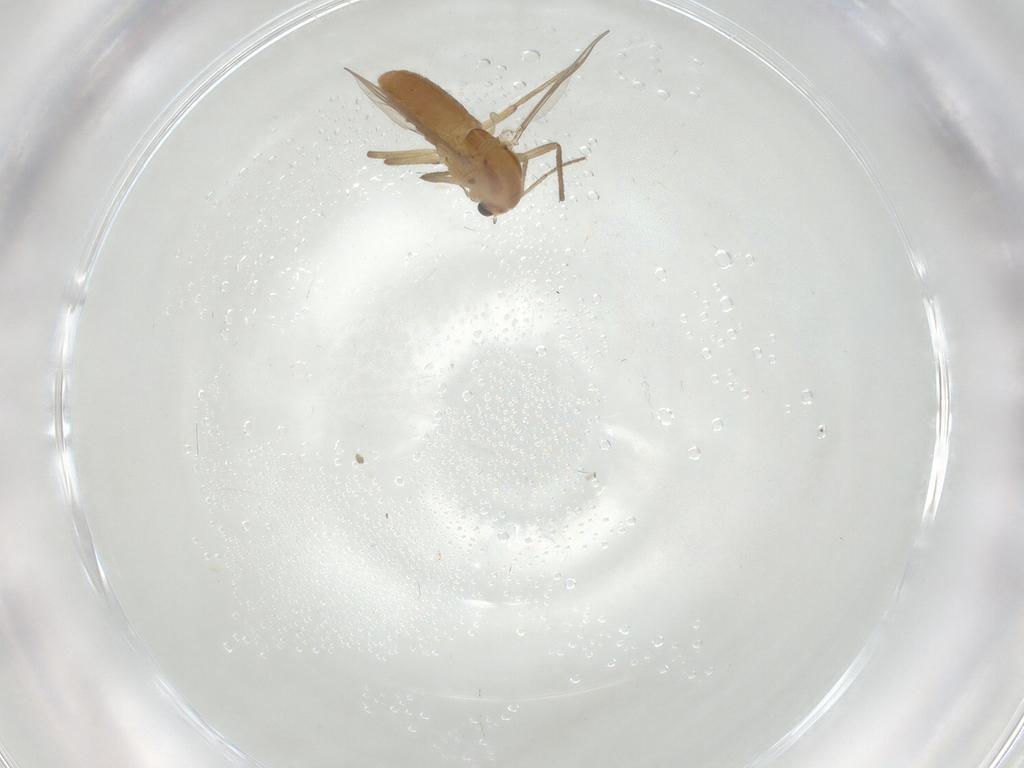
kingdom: Animalia
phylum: Arthropoda
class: Insecta
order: Diptera
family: Chironomidae
